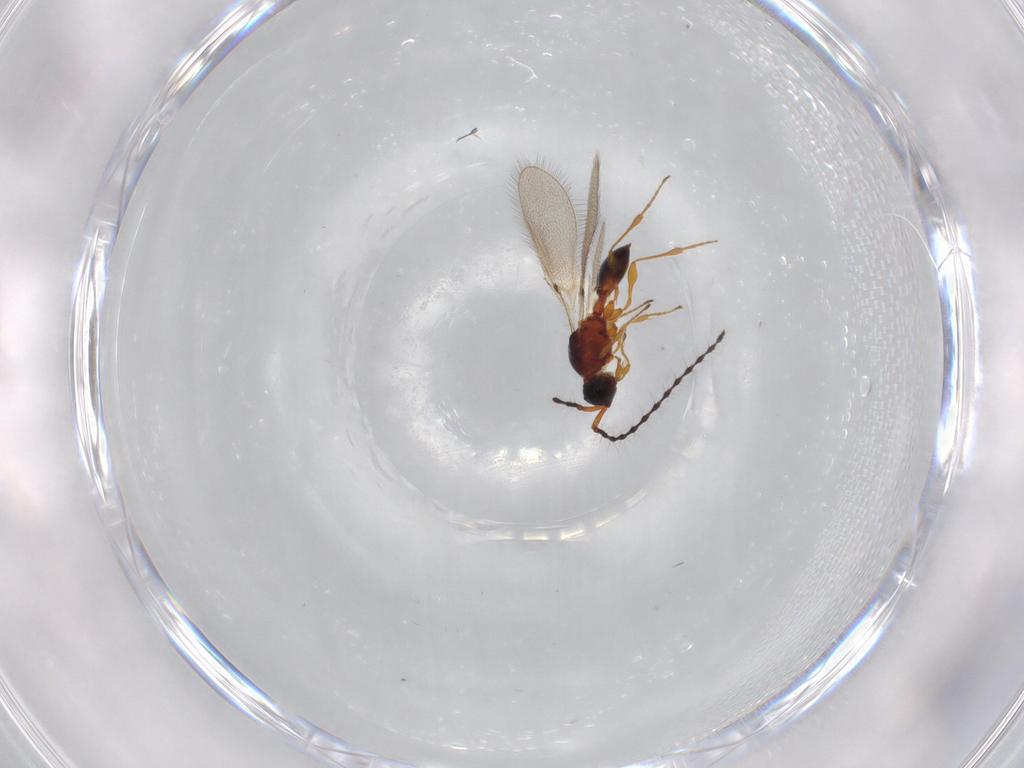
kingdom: Animalia
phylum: Arthropoda
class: Insecta
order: Hymenoptera
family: Diapriidae
